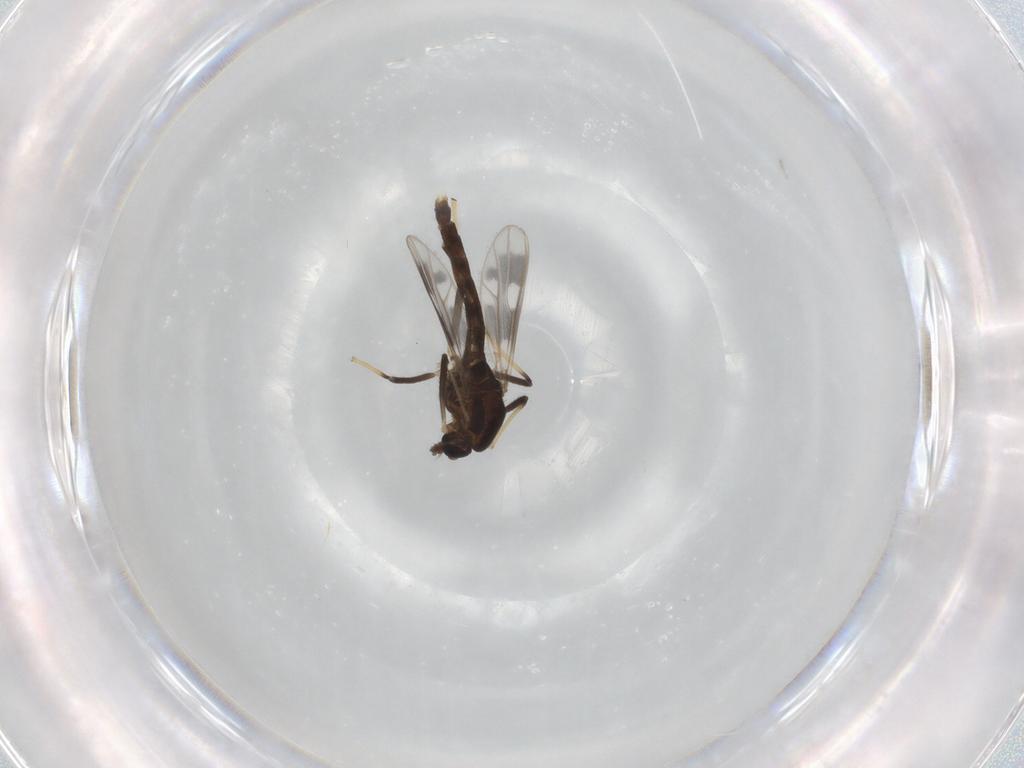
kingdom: Animalia
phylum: Arthropoda
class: Insecta
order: Diptera
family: Chironomidae
